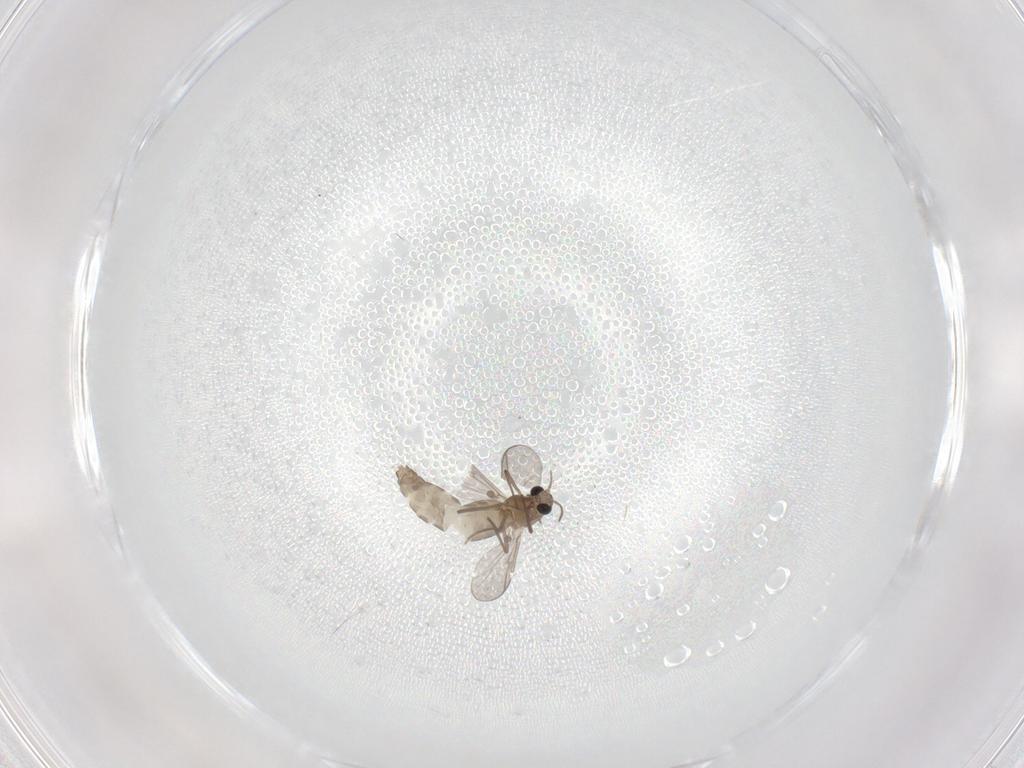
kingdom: Animalia
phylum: Arthropoda
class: Insecta
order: Diptera
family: Chironomidae
